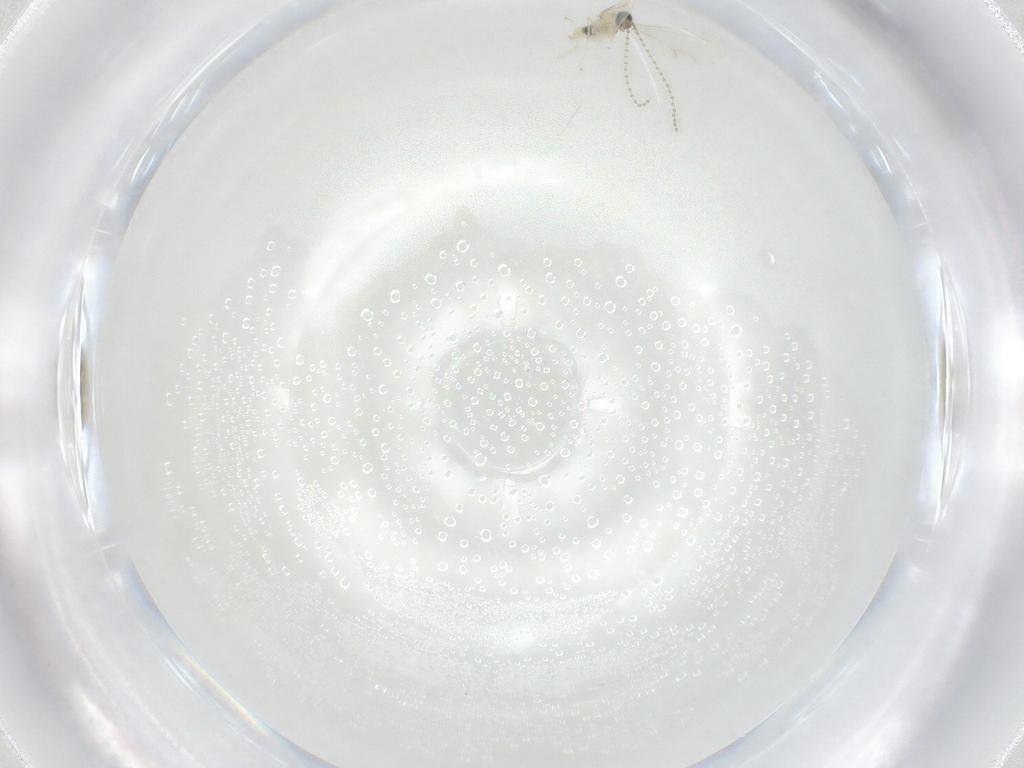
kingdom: Animalia
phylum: Arthropoda
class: Insecta
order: Diptera
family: Cecidomyiidae
